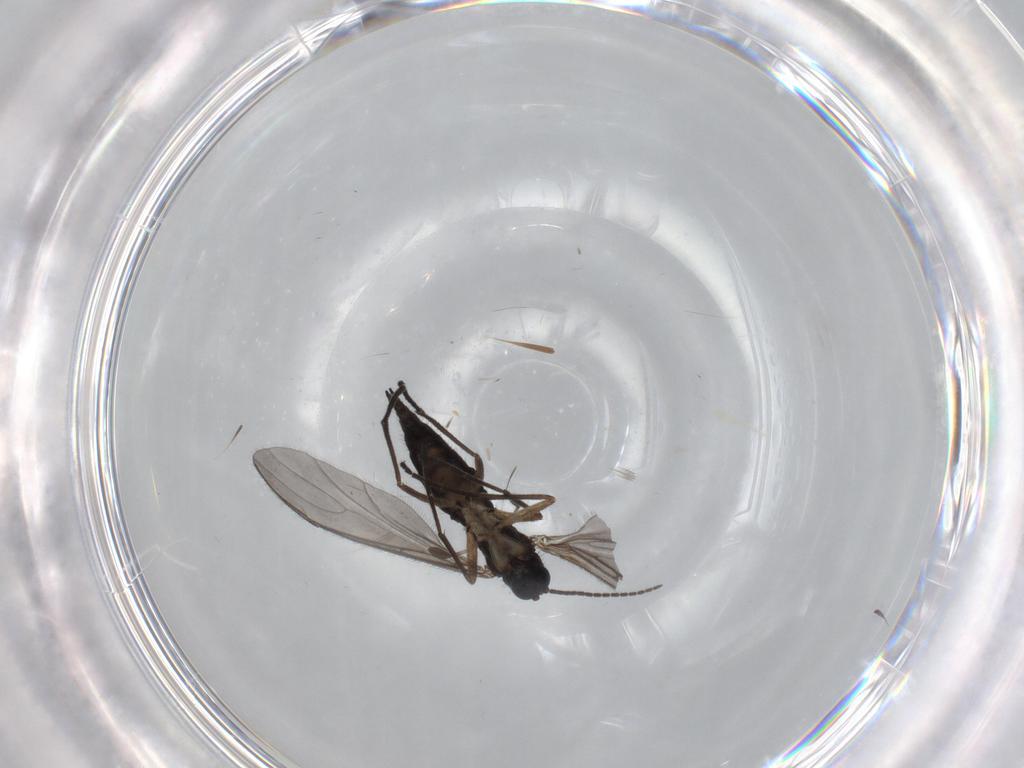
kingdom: Animalia
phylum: Arthropoda
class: Insecta
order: Diptera
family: Sciaridae
